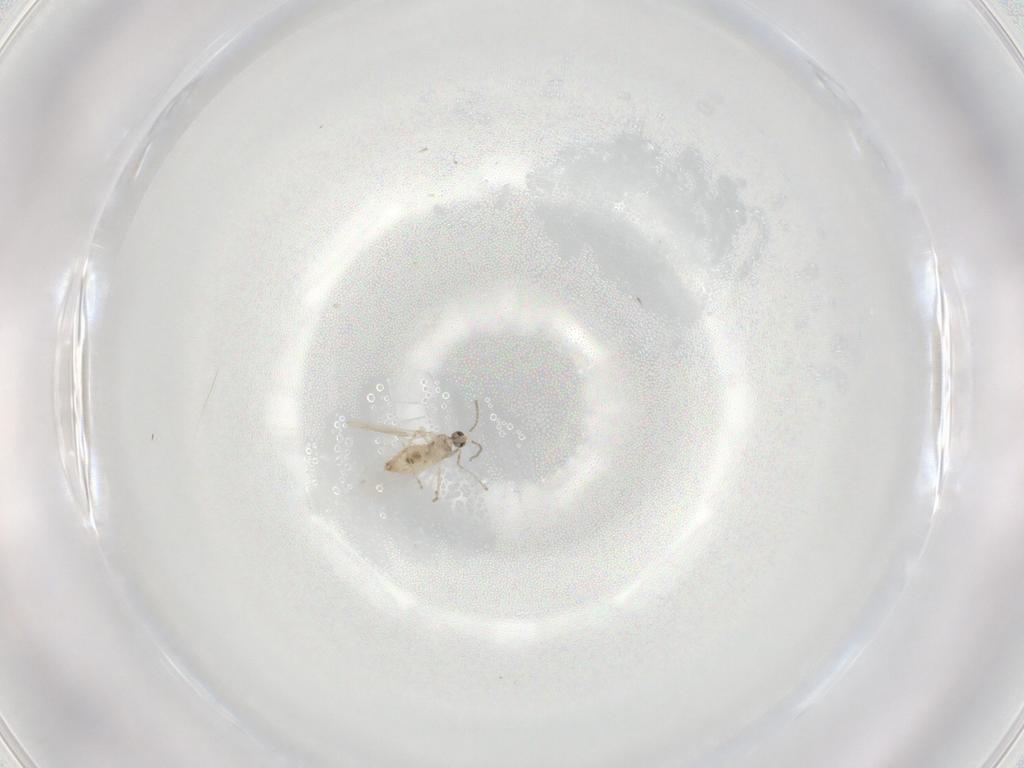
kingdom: Animalia
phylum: Arthropoda
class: Insecta
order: Diptera
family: Cecidomyiidae
